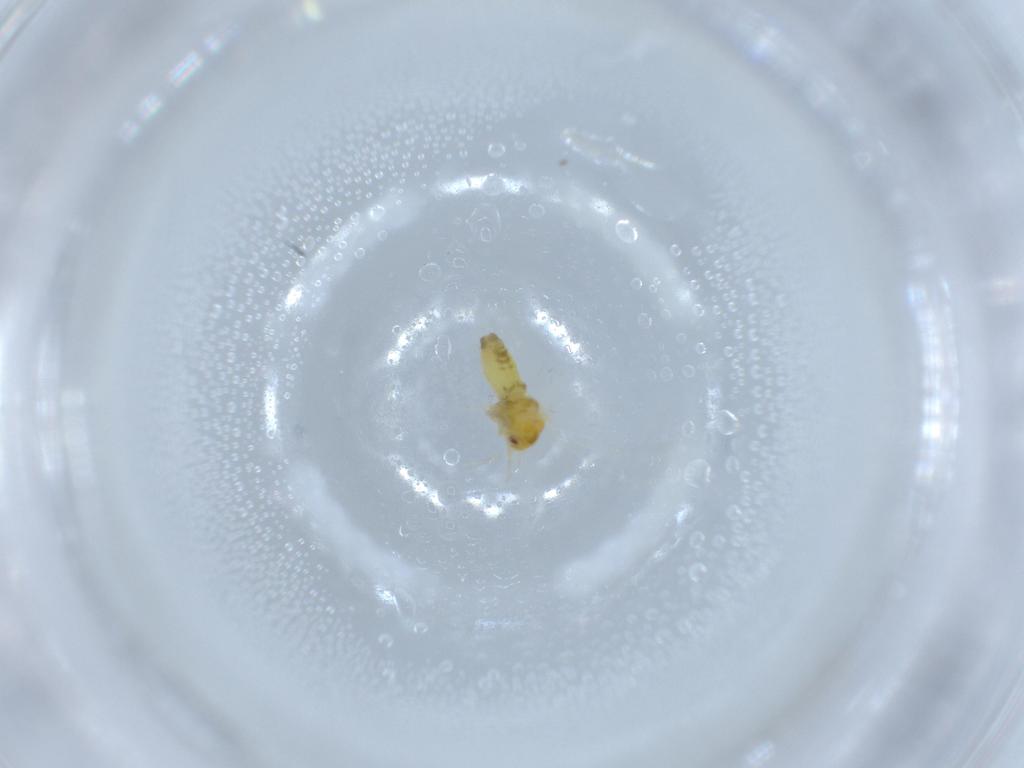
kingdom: Animalia
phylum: Arthropoda
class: Insecta
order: Hemiptera
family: Aleyrodidae
